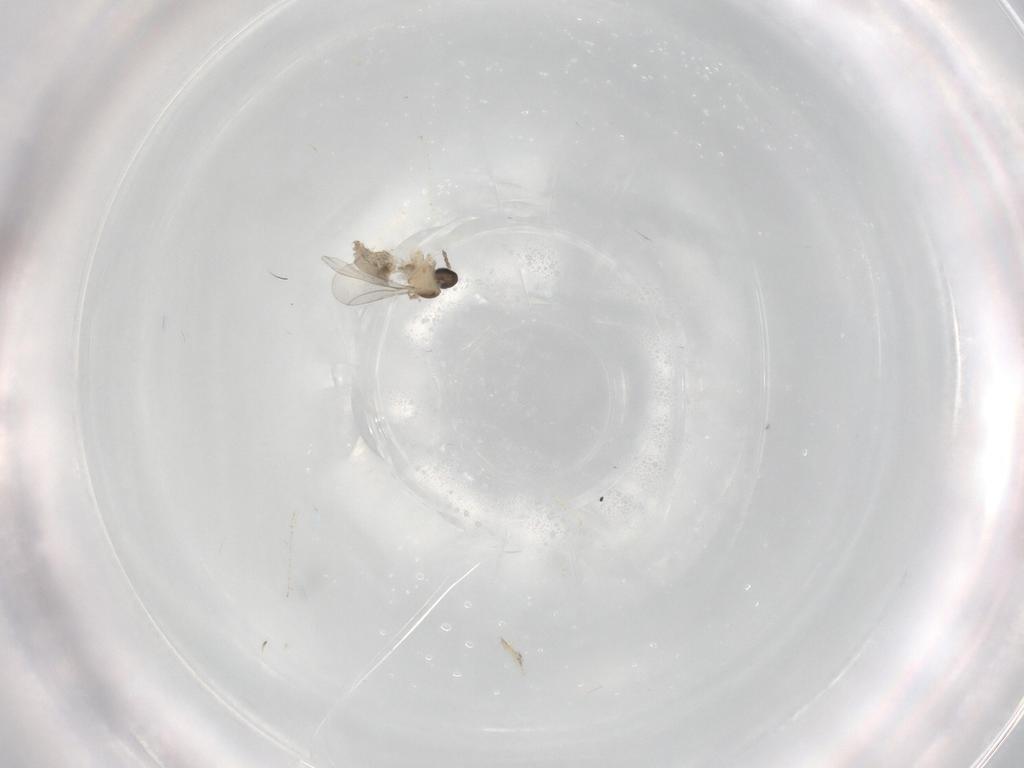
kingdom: Animalia
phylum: Arthropoda
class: Insecta
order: Diptera
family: Cecidomyiidae
